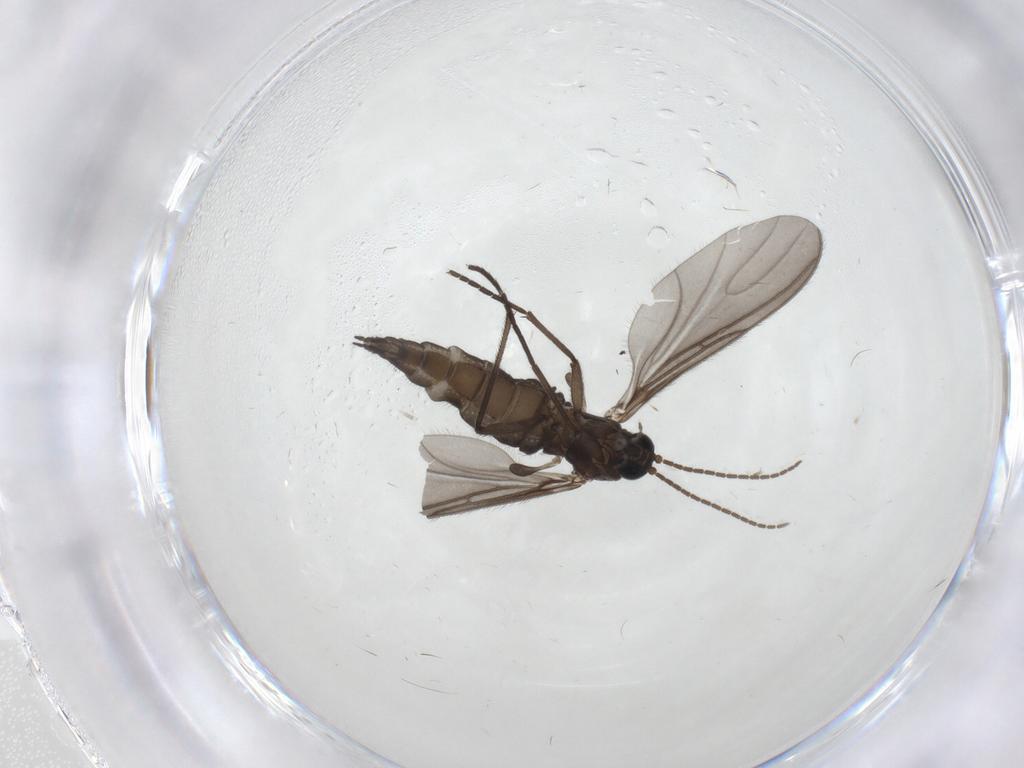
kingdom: Animalia
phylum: Arthropoda
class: Insecta
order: Diptera
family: Sciaridae
